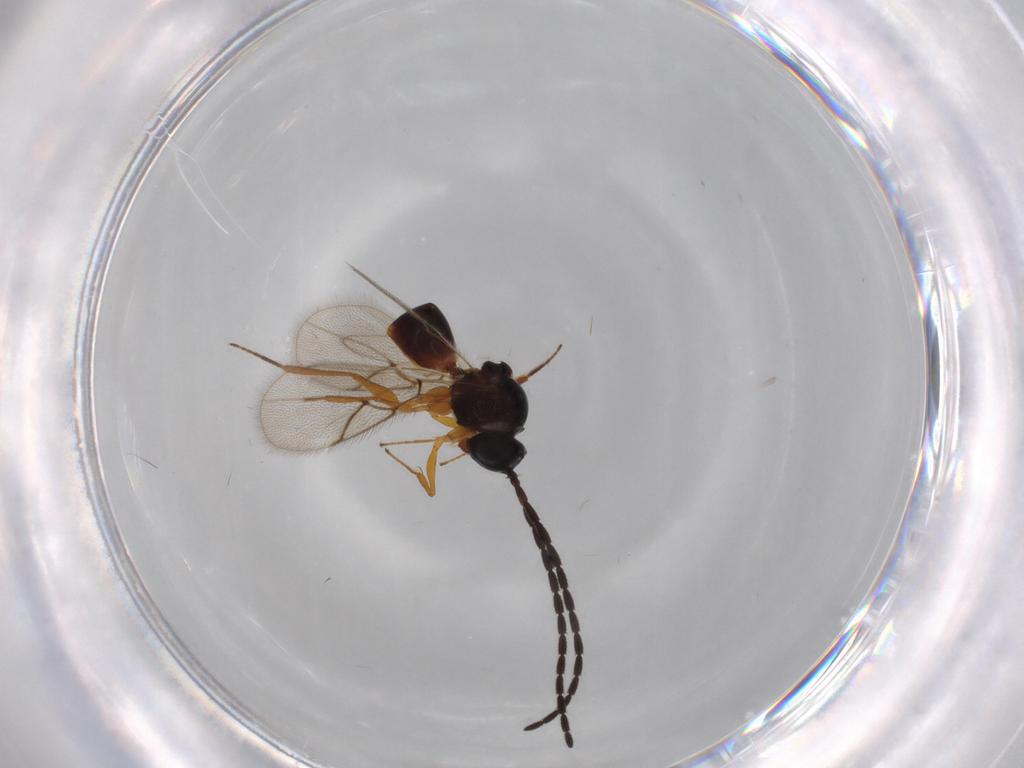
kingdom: Animalia
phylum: Arthropoda
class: Insecta
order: Hymenoptera
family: Figitidae
